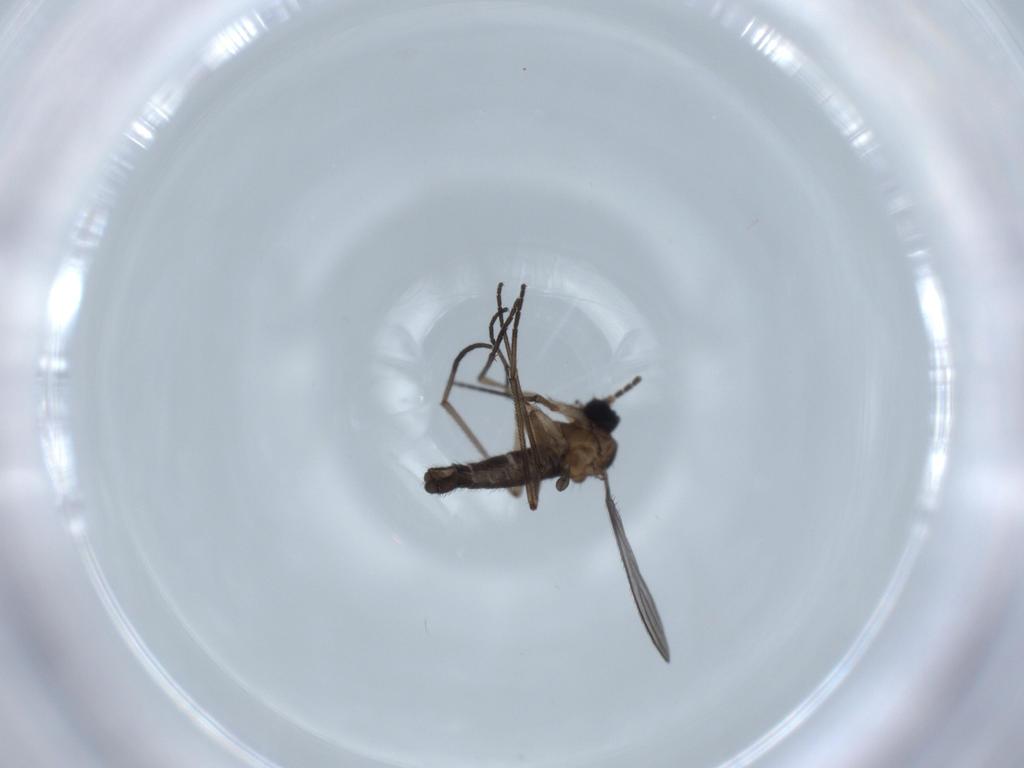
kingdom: Animalia
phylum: Arthropoda
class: Insecta
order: Diptera
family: Sciaridae
